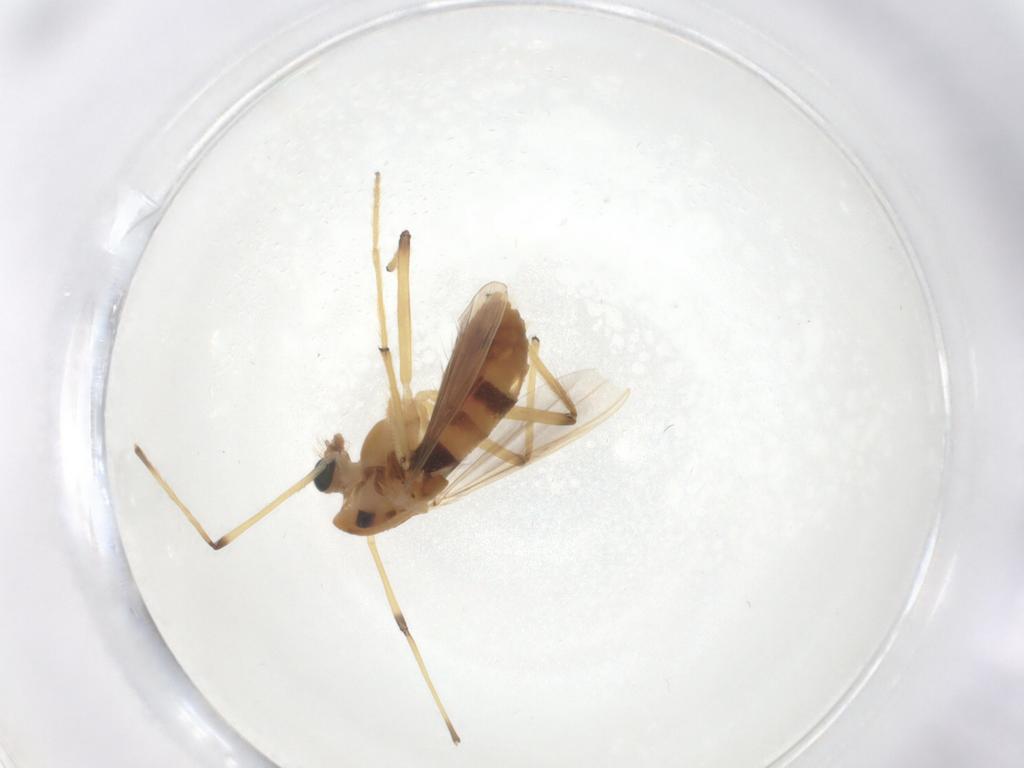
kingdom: Animalia
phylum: Arthropoda
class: Insecta
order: Diptera
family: Chironomidae
